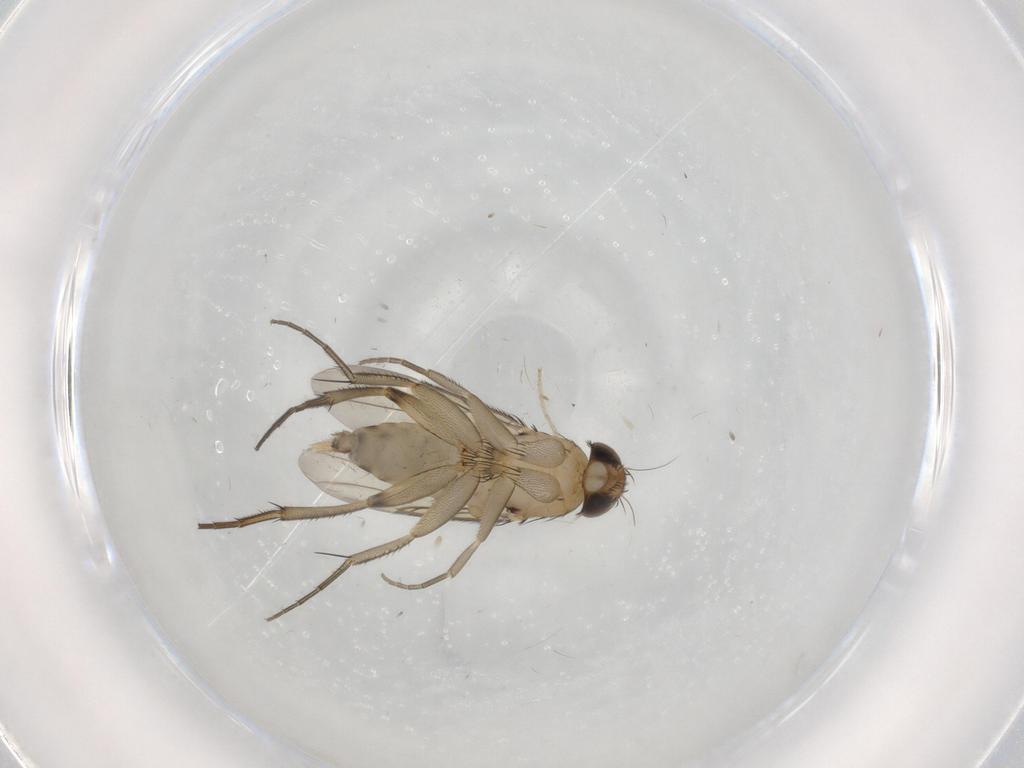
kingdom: Animalia
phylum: Arthropoda
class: Insecta
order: Diptera
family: Phoridae
